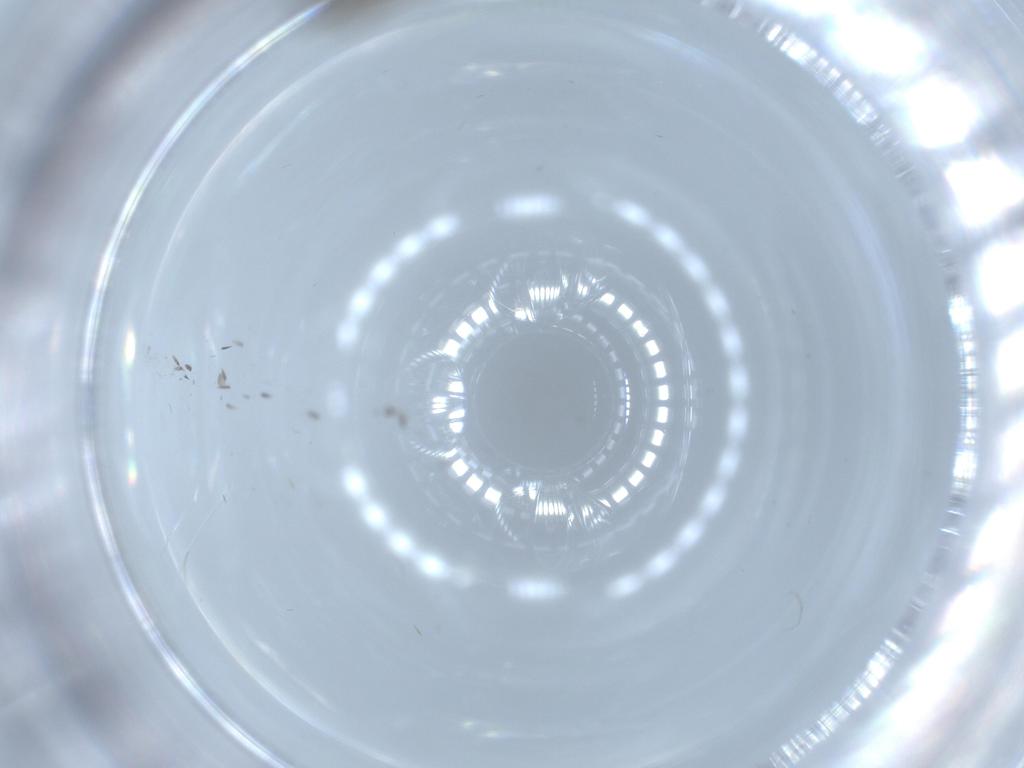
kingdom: Animalia
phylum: Arthropoda
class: Insecta
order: Diptera
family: Cecidomyiidae
